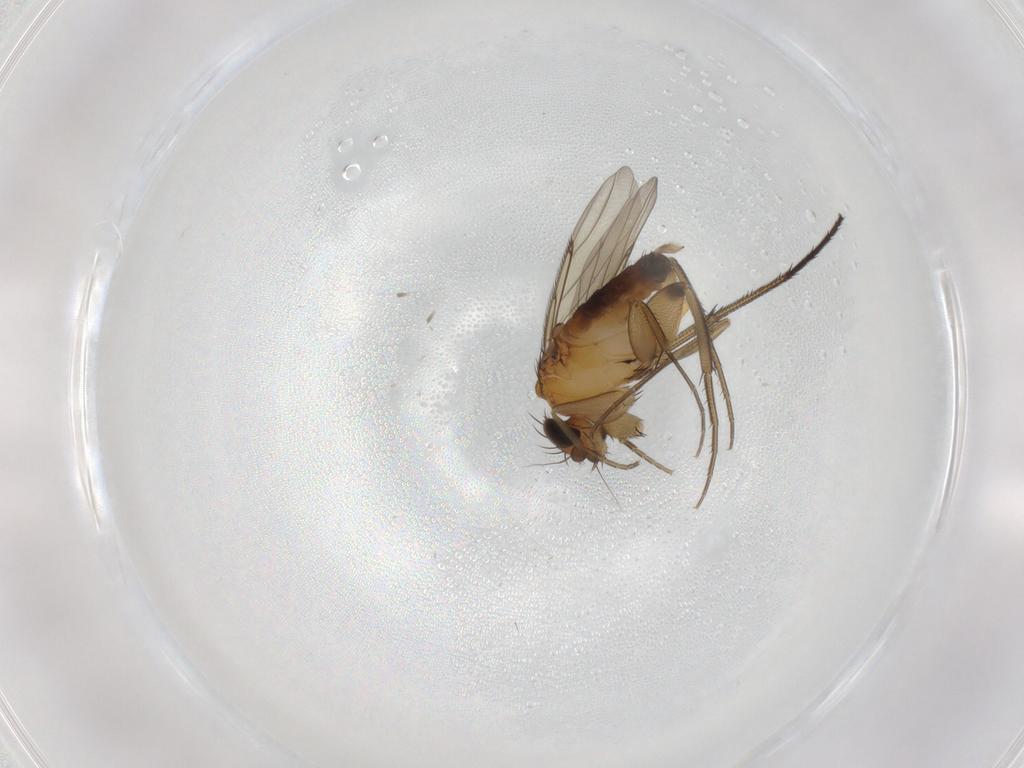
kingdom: Animalia
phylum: Arthropoda
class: Insecta
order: Diptera
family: Phoridae
